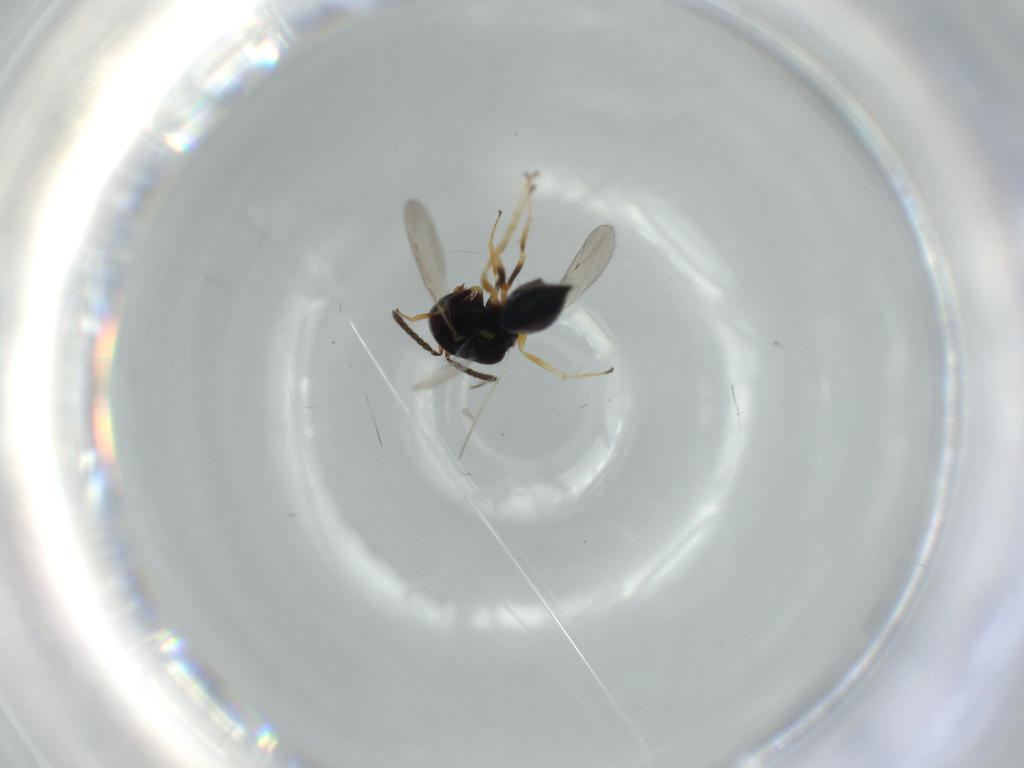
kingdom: Animalia
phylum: Arthropoda
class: Insecta
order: Hymenoptera
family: Pteromalidae
